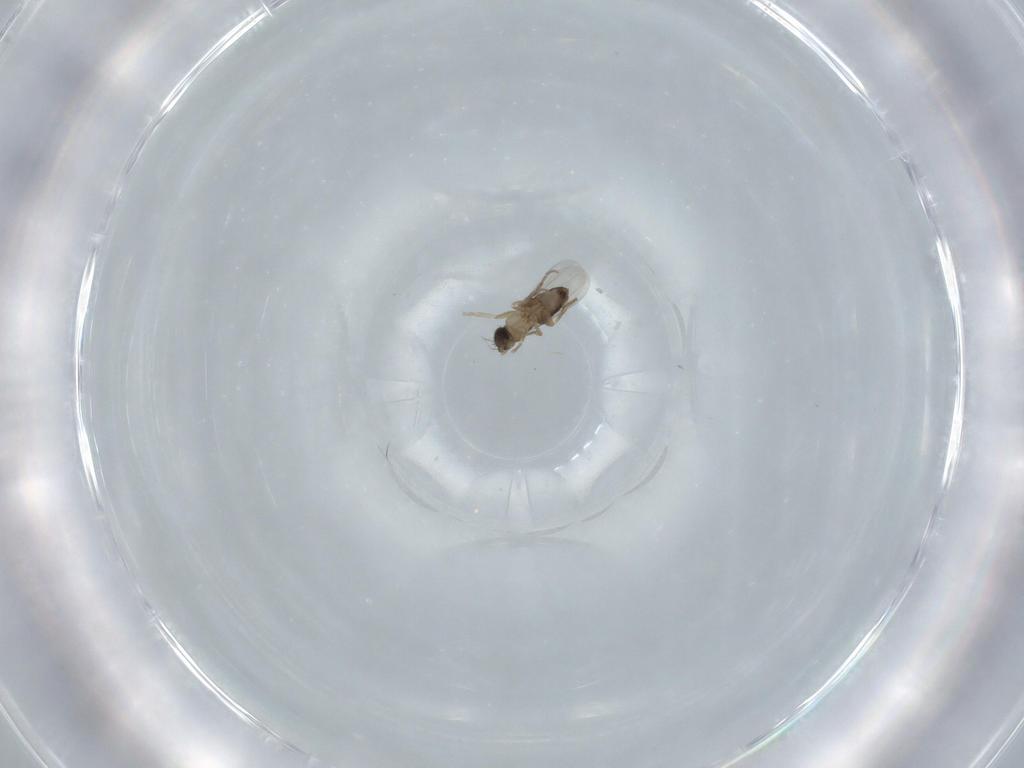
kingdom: Animalia
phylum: Arthropoda
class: Insecta
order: Diptera
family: Phoridae
